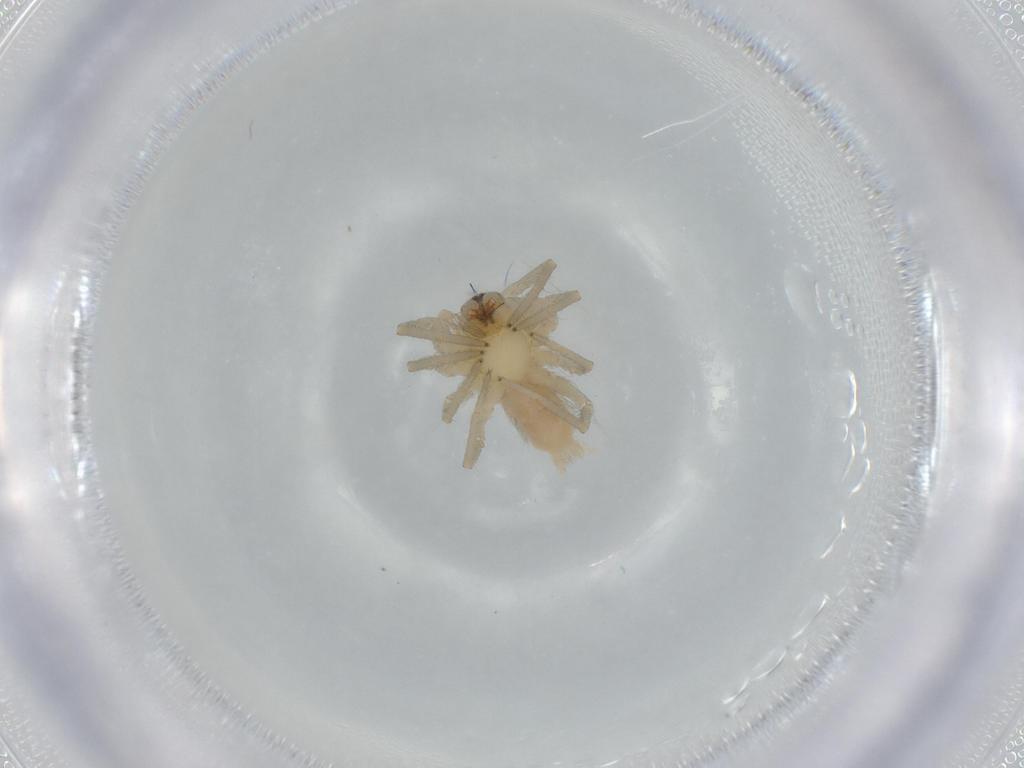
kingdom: Animalia
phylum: Arthropoda
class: Arachnida
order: Araneae
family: Cheiracanthiidae
